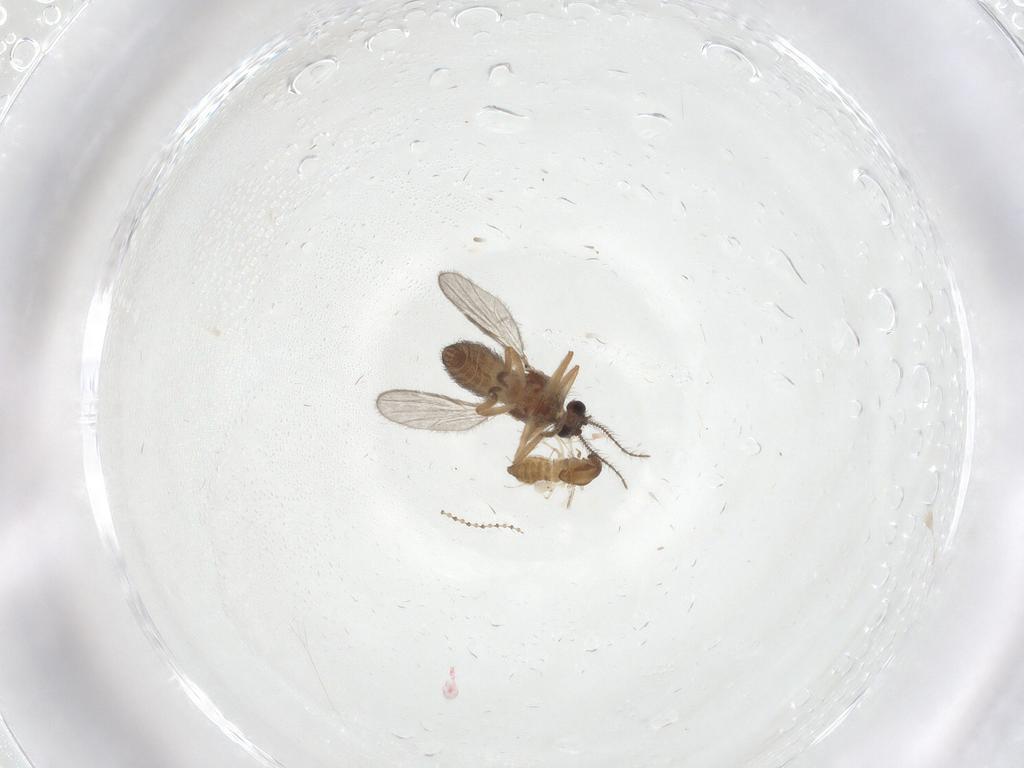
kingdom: Animalia
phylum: Arthropoda
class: Insecta
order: Diptera
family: Chironomidae
